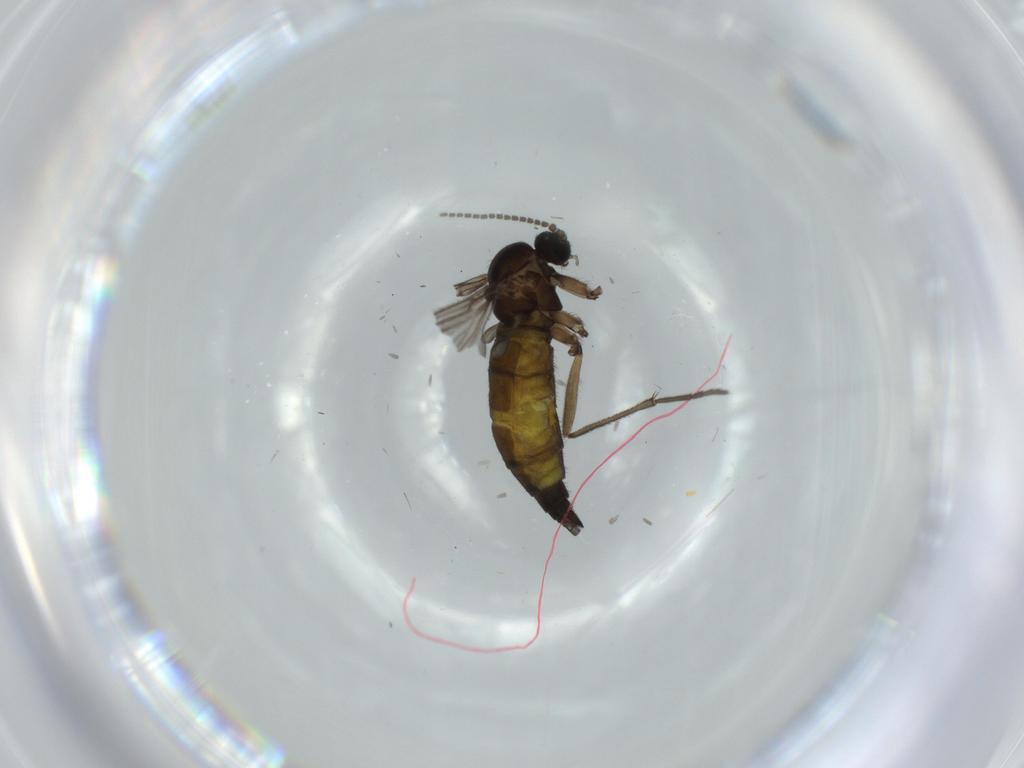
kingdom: Animalia
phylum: Arthropoda
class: Insecta
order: Diptera
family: Sciaridae
